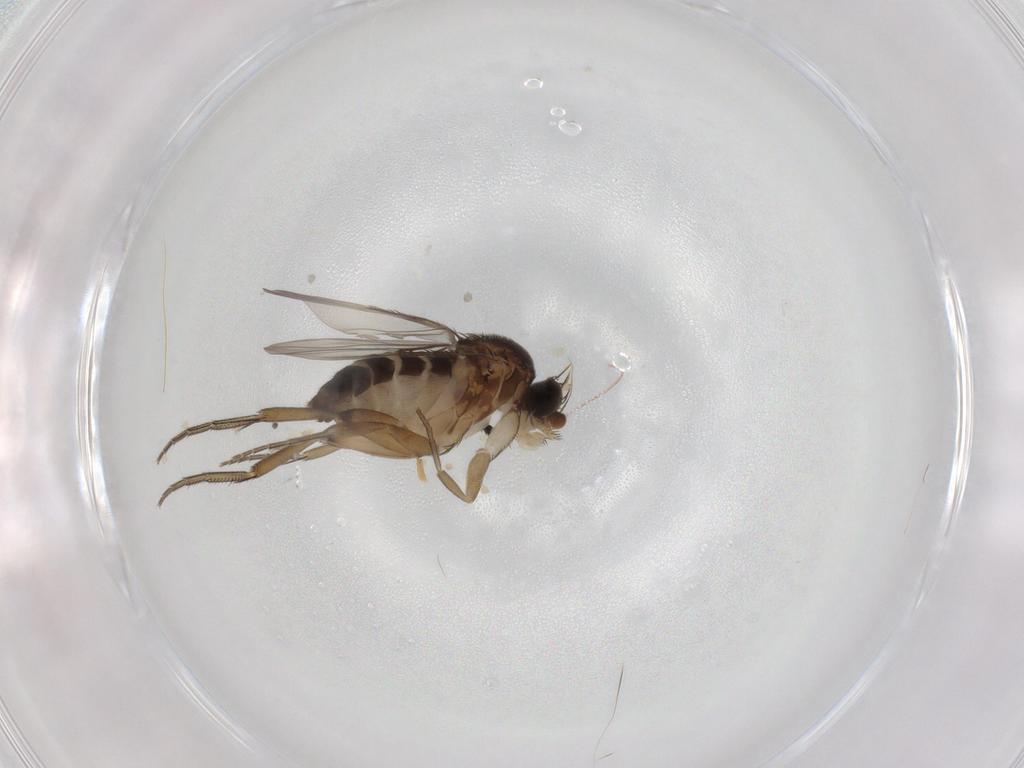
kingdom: Animalia
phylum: Arthropoda
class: Insecta
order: Diptera
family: Phoridae
